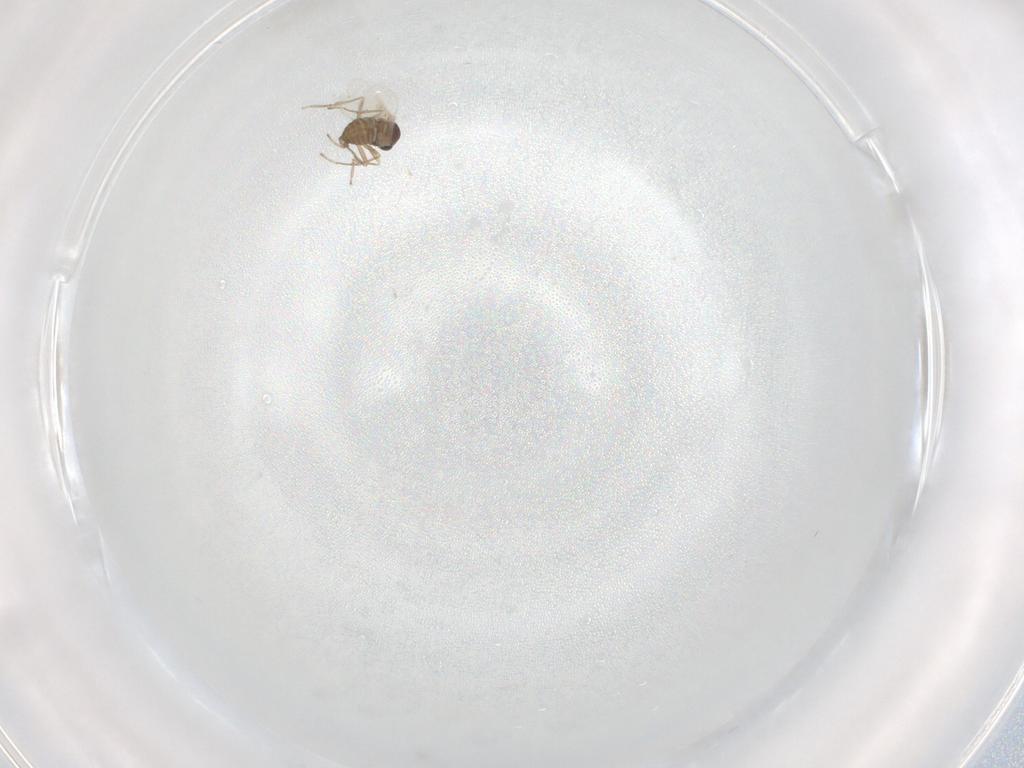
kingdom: Animalia
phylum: Arthropoda
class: Insecta
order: Diptera
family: Cecidomyiidae
